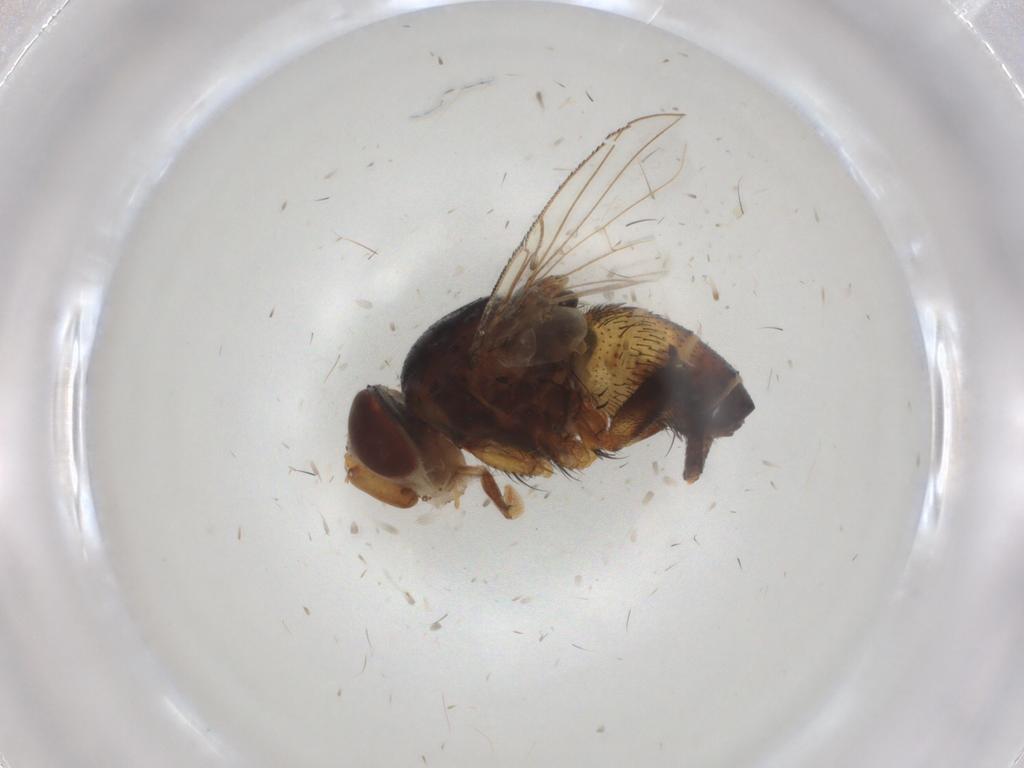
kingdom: Animalia
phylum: Arthropoda
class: Insecta
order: Diptera
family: Glossinidae
